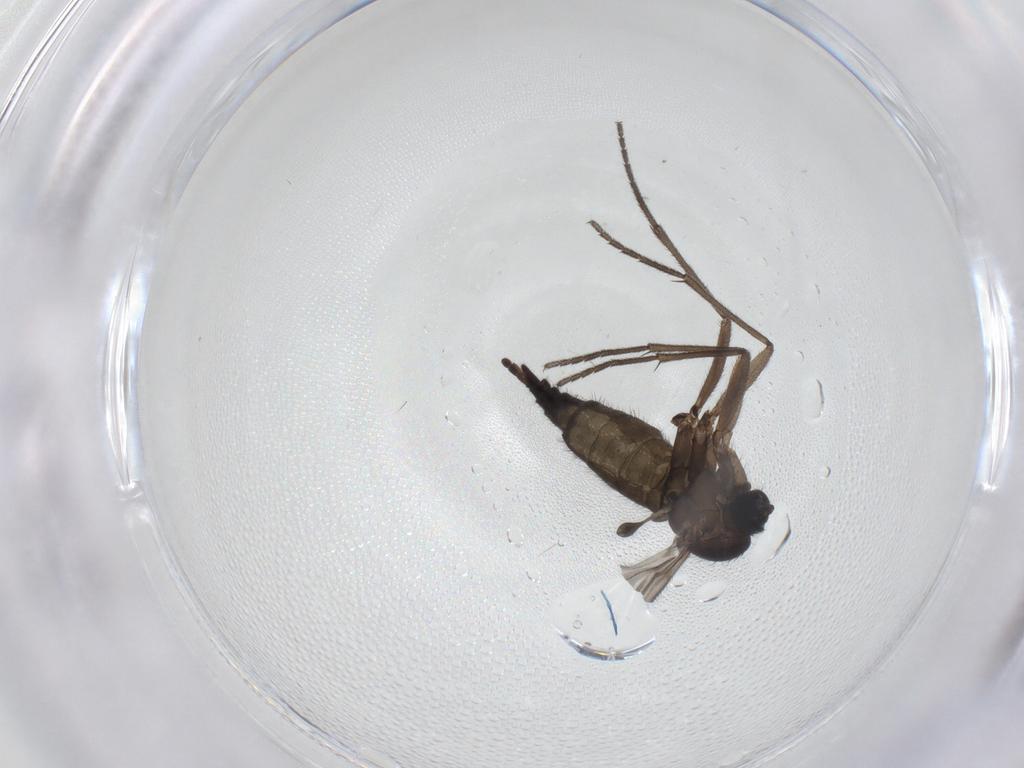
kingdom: Animalia
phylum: Arthropoda
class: Insecta
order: Diptera
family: Sciaridae
